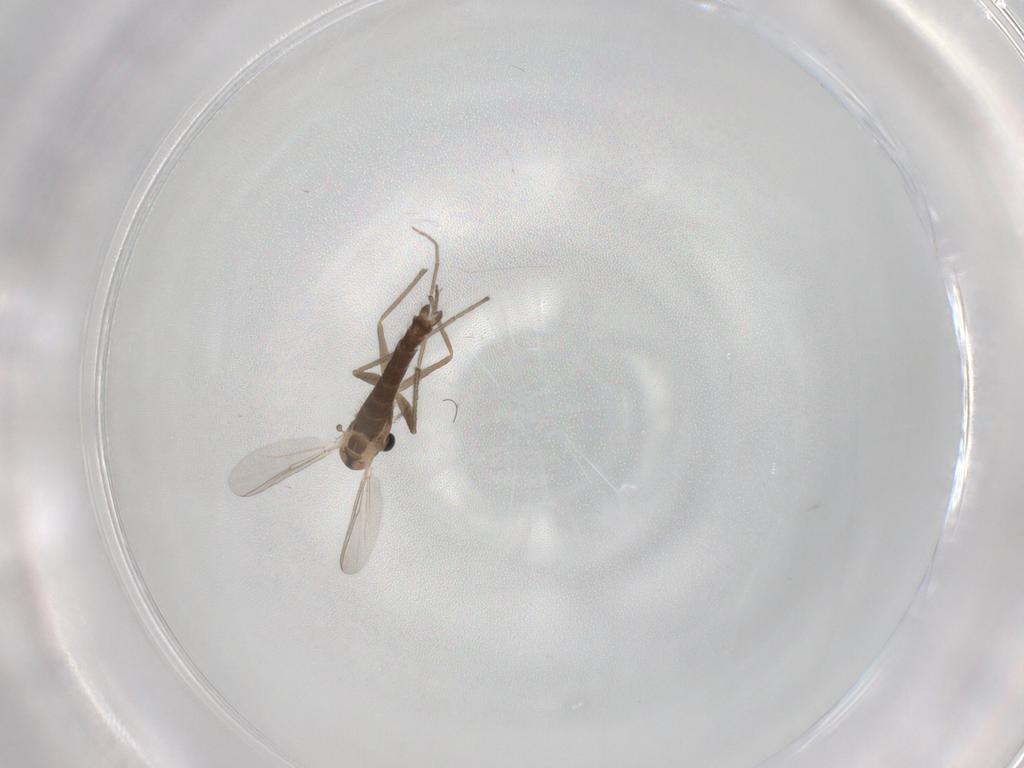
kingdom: Animalia
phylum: Arthropoda
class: Insecta
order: Diptera
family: Chironomidae
